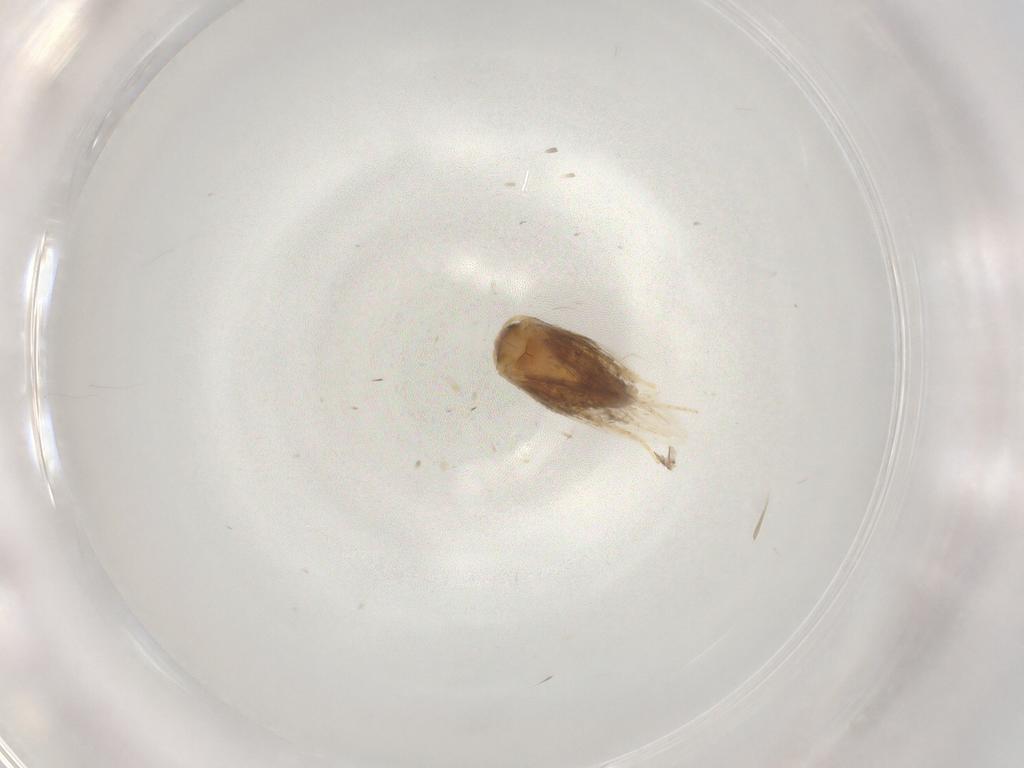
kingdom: Animalia
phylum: Arthropoda
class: Insecta
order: Lepidoptera
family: Nepticulidae
